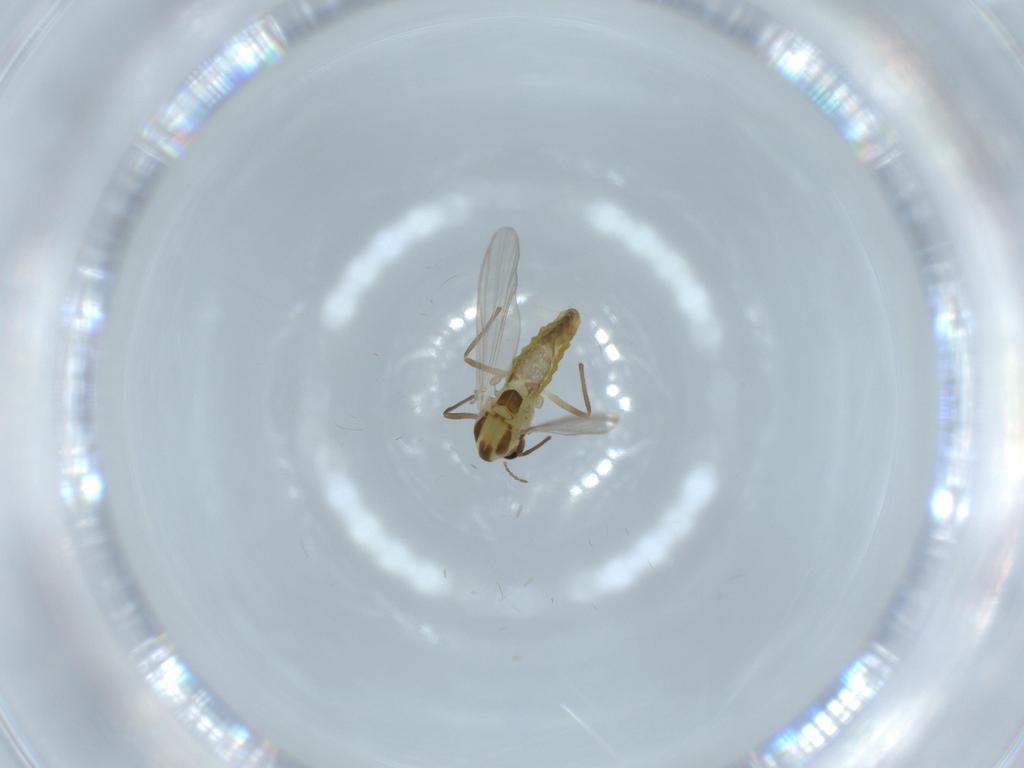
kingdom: Animalia
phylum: Arthropoda
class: Insecta
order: Diptera
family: Chironomidae
